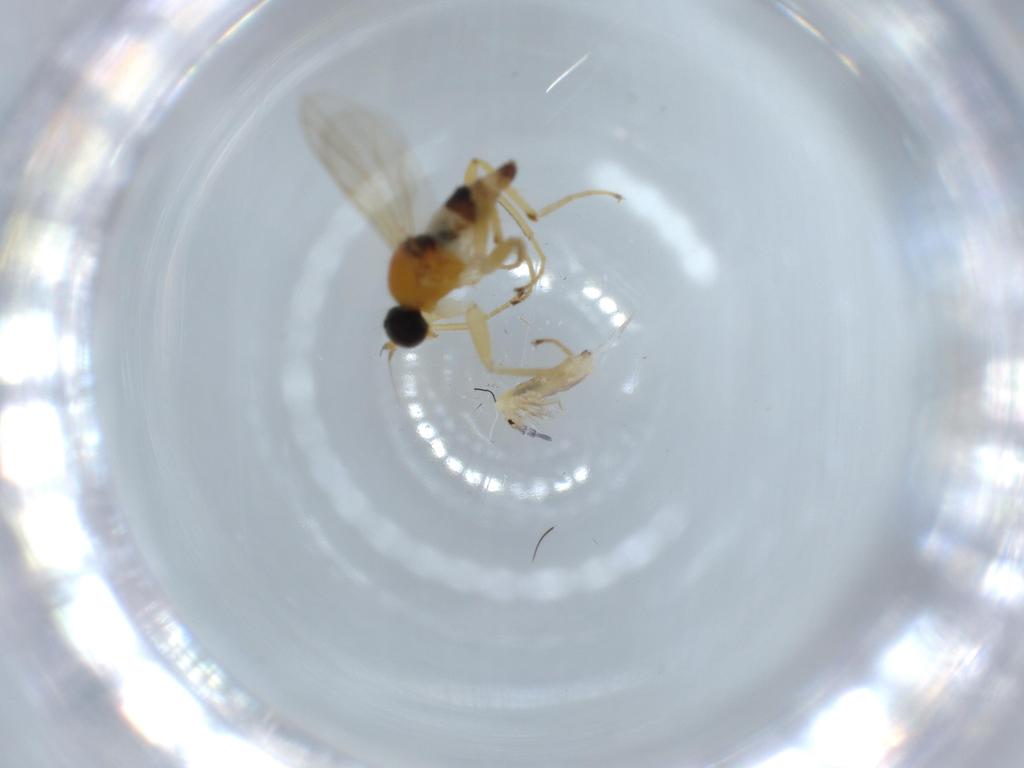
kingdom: Animalia
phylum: Arthropoda
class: Insecta
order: Diptera
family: Hybotidae
